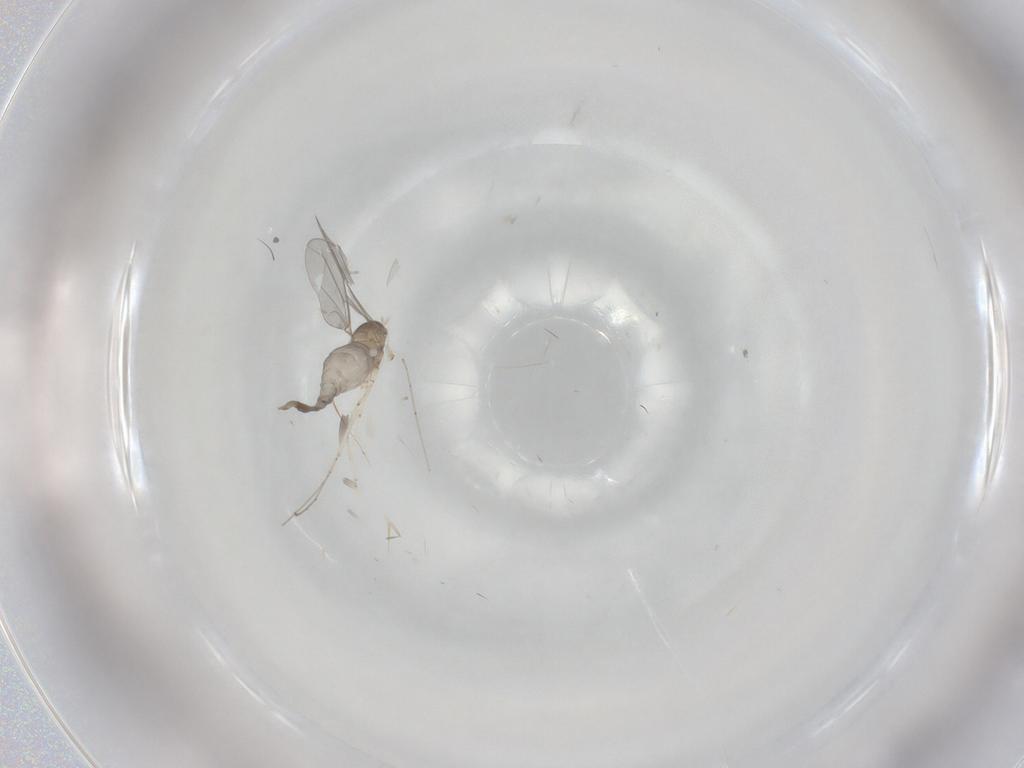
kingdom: Animalia
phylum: Arthropoda
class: Insecta
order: Diptera
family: Cecidomyiidae
